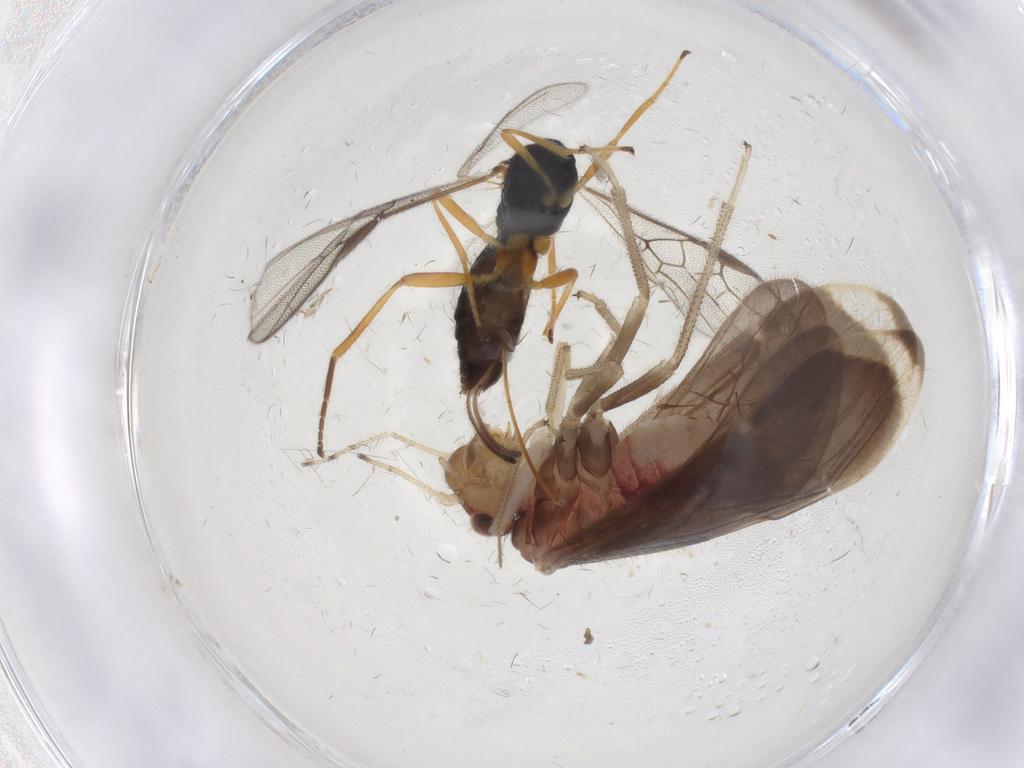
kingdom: Animalia
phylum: Arthropoda
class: Insecta
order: Psocodea
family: Amphipsocidae
